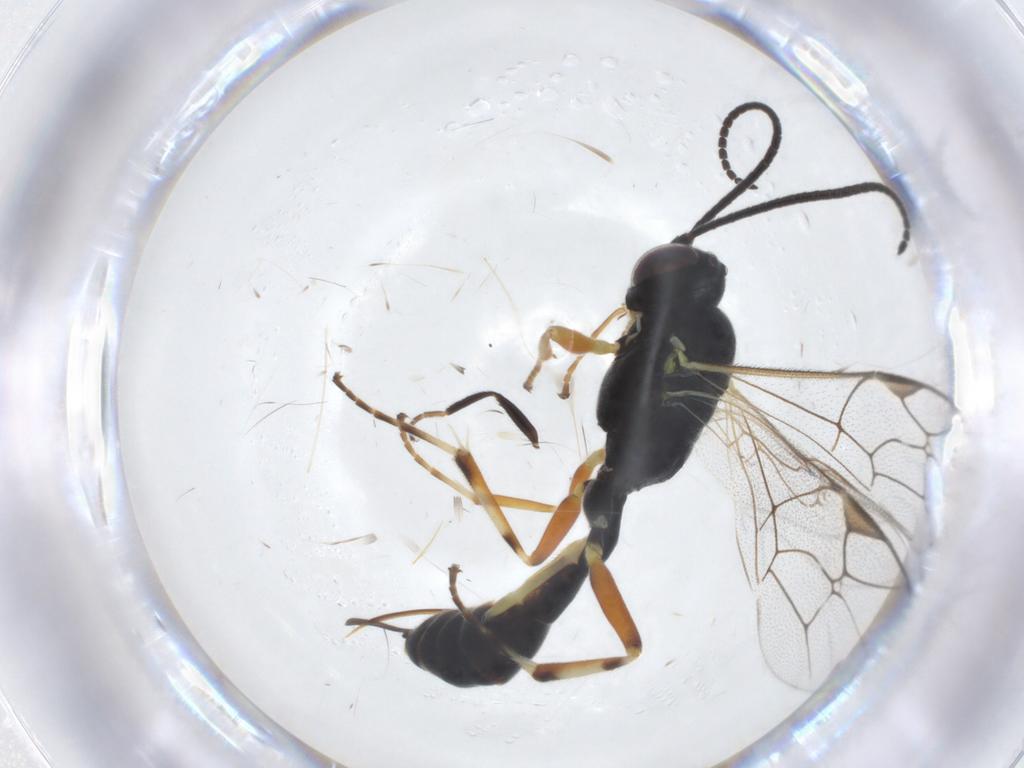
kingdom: Animalia
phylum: Arthropoda
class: Insecta
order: Hymenoptera
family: Ichneumonidae
